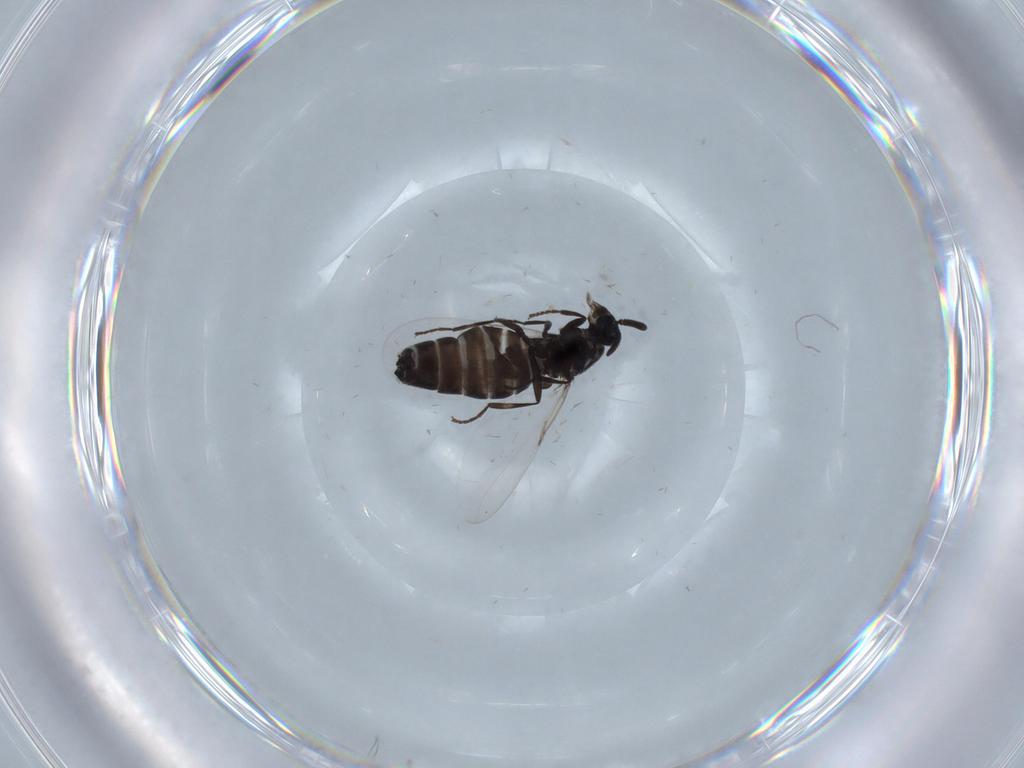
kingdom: Animalia
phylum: Arthropoda
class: Insecta
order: Diptera
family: Scatopsidae
